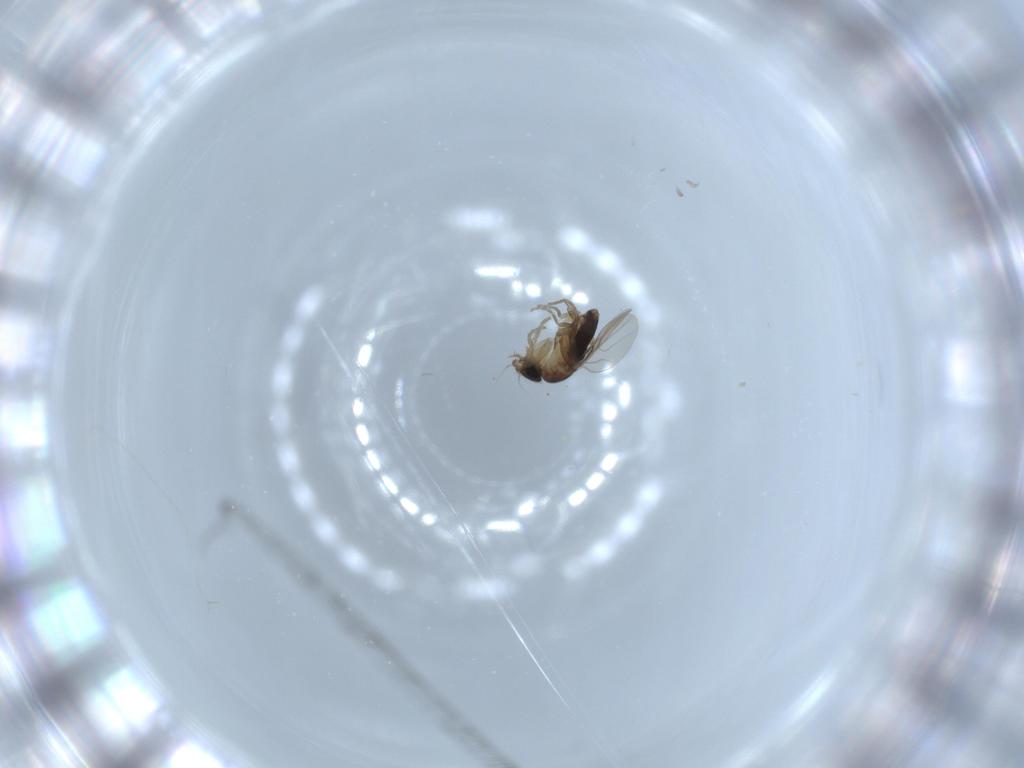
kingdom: Animalia
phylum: Arthropoda
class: Insecta
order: Diptera
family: Phoridae
